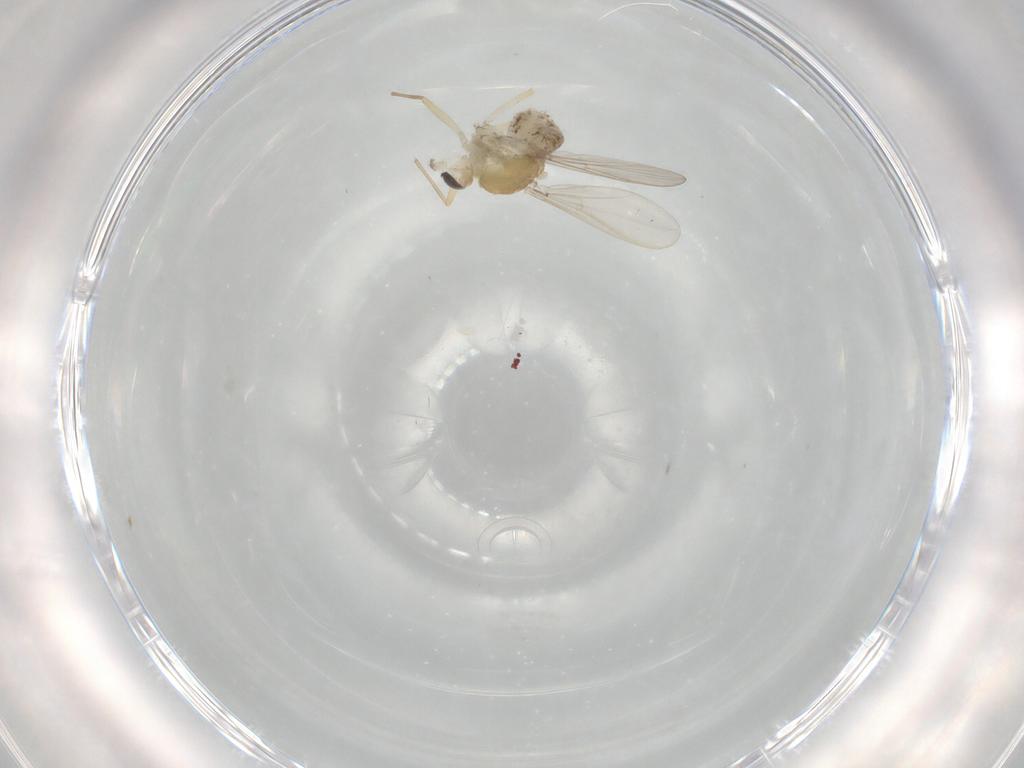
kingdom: Animalia
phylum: Arthropoda
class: Insecta
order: Diptera
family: Chironomidae
